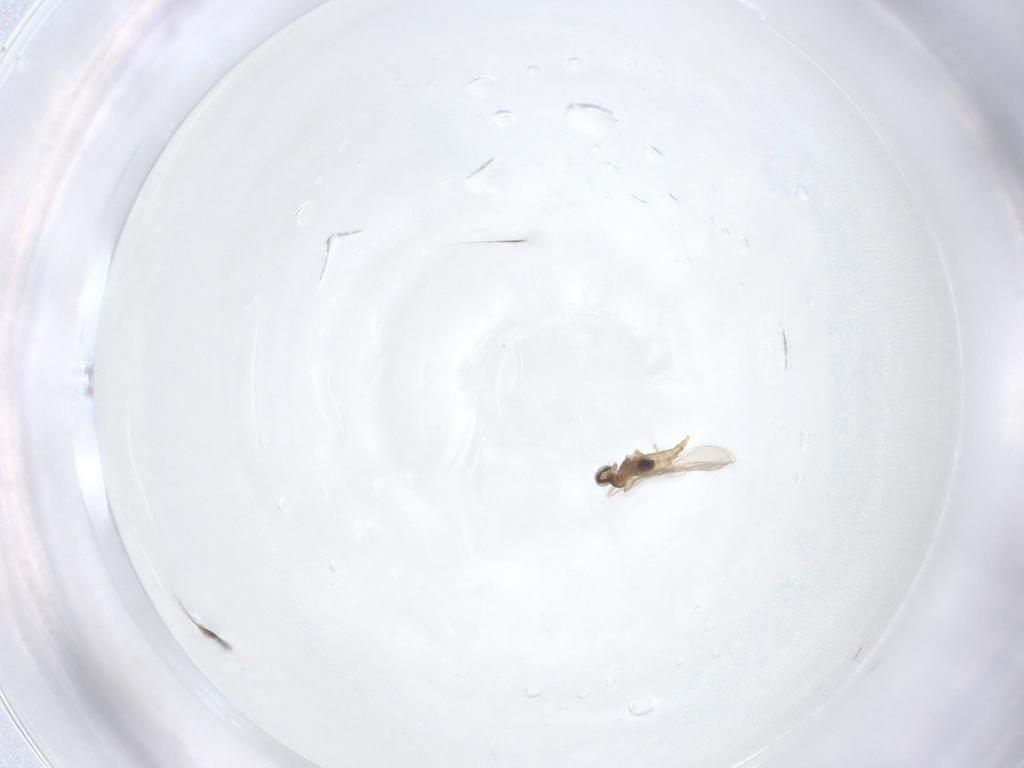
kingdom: Animalia
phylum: Arthropoda
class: Insecta
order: Diptera
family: Cecidomyiidae
